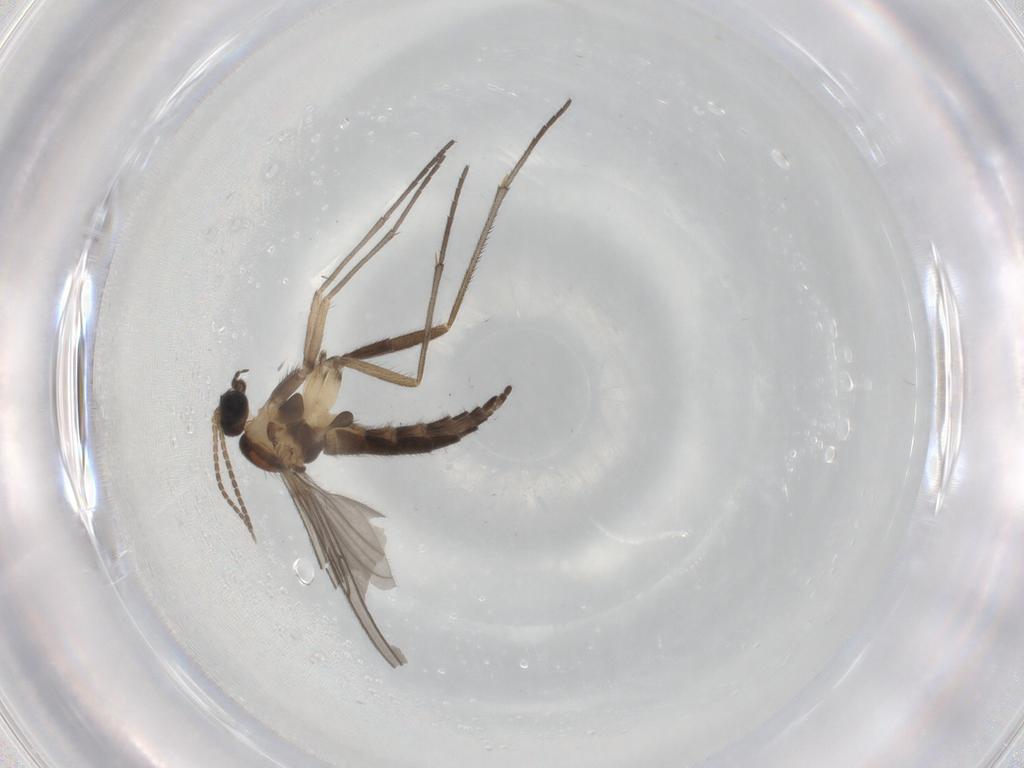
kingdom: Animalia
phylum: Arthropoda
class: Insecta
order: Diptera
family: Sciaridae
